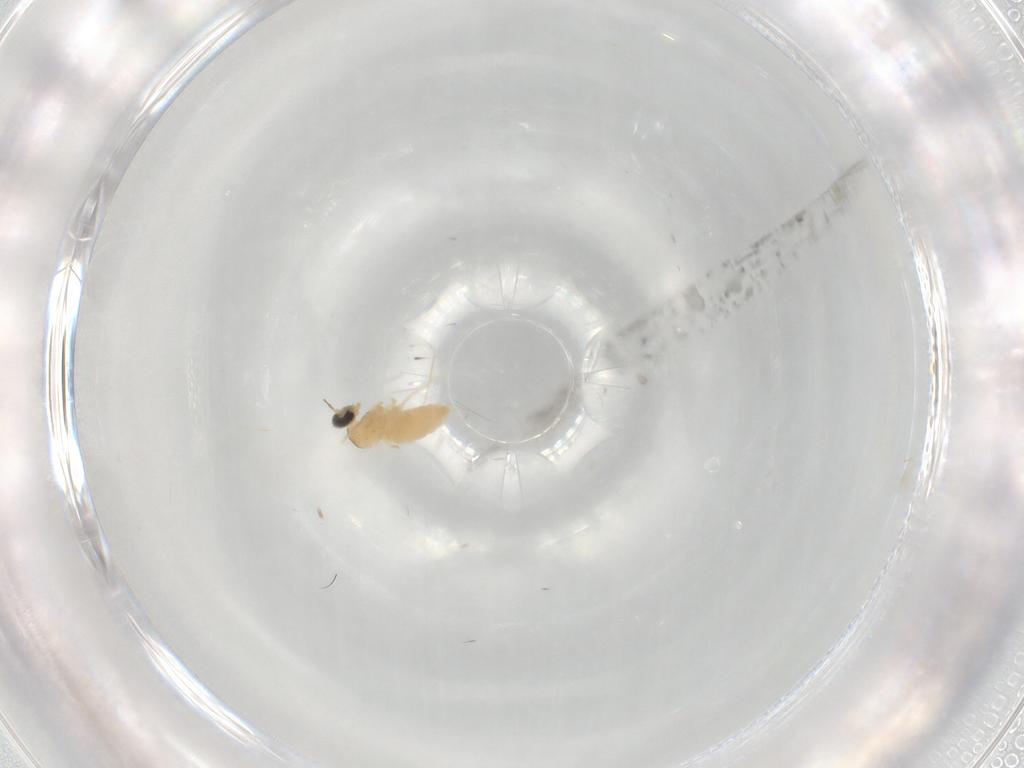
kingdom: Animalia
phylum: Arthropoda
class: Insecta
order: Diptera
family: Cecidomyiidae
